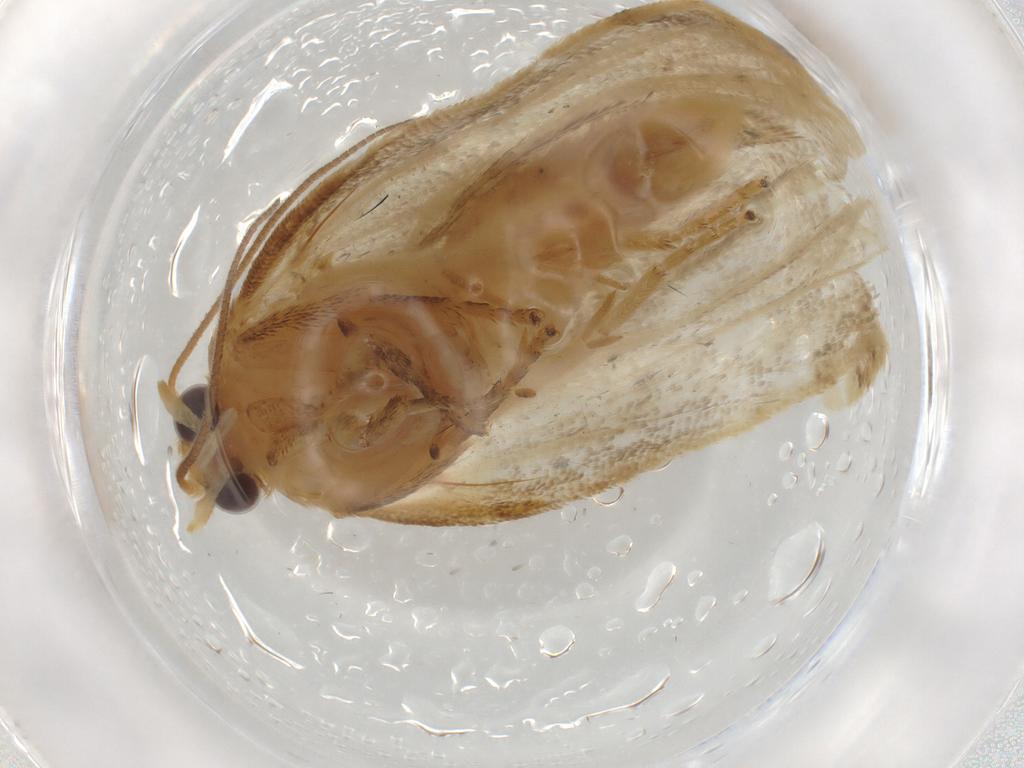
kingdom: Animalia
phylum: Arthropoda
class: Insecta
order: Lepidoptera
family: Tortricidae
